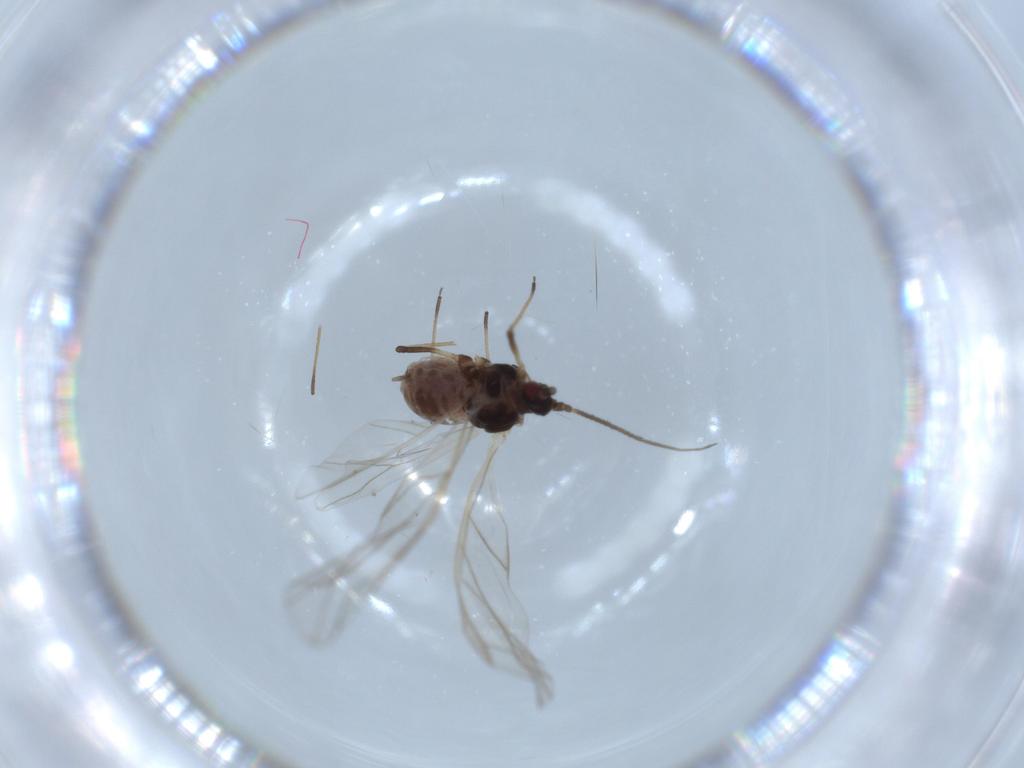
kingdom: Animalia
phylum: Arthropoda
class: Insecta
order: Hemiptera
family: Aphididae
